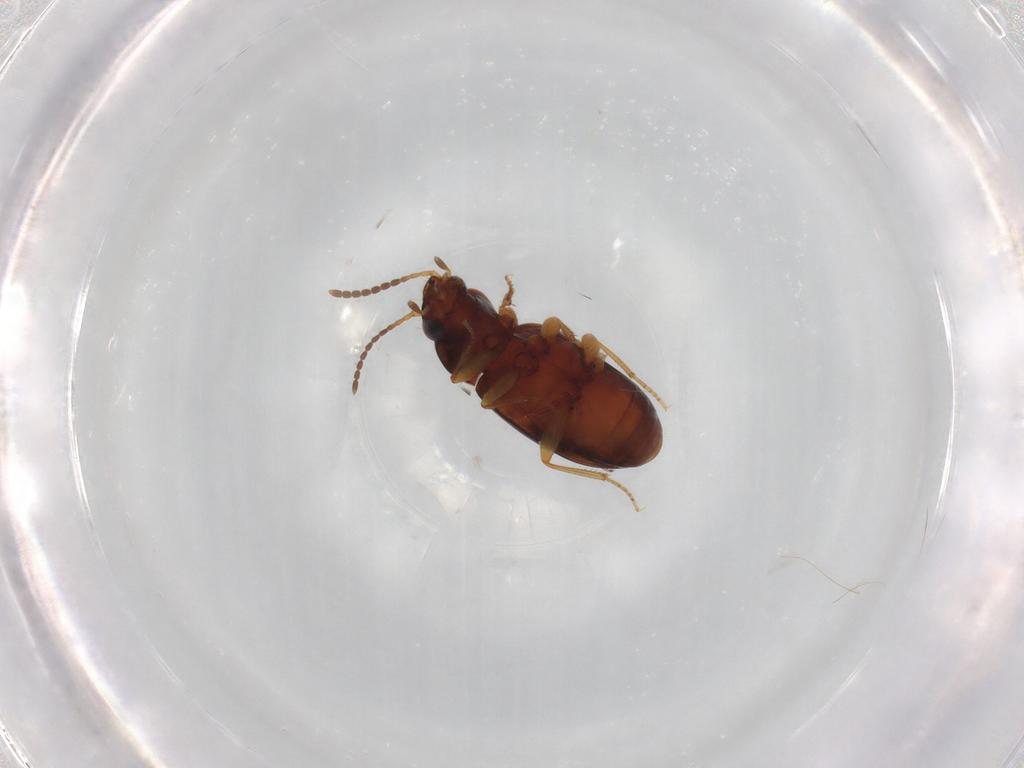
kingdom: Animalia
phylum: Arthropoda
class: Insecta
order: Coleoptera
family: Carabidae
